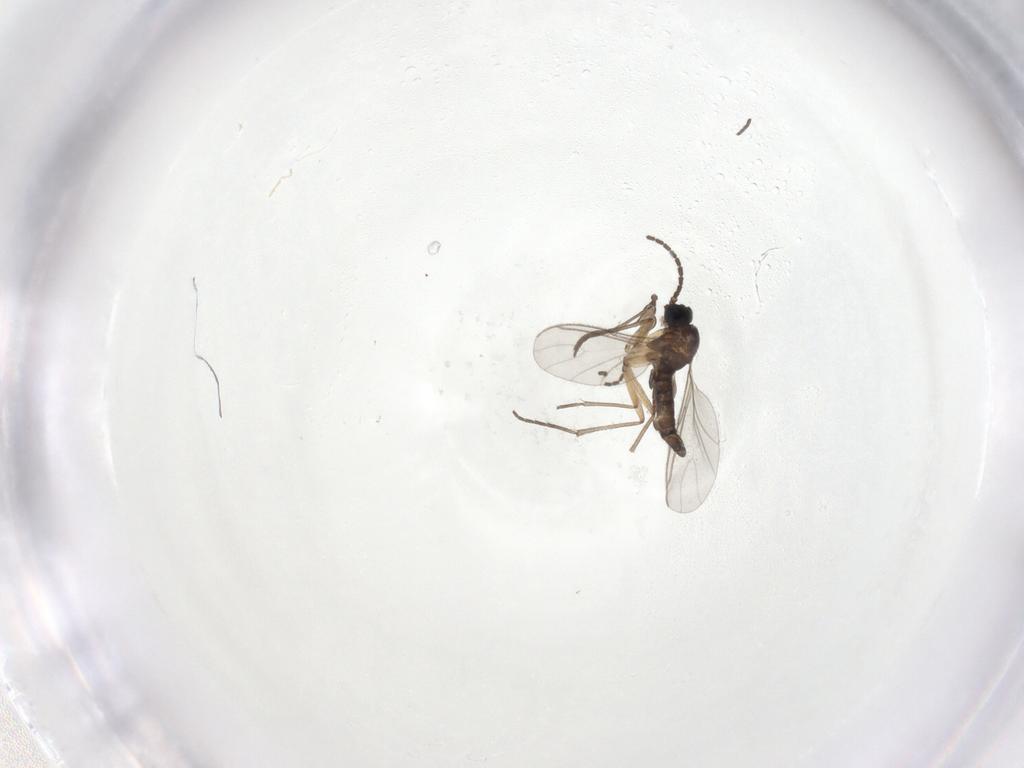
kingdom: Animalia
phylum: Arthropoda
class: Insecta
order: Diptera
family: Sciaridae
